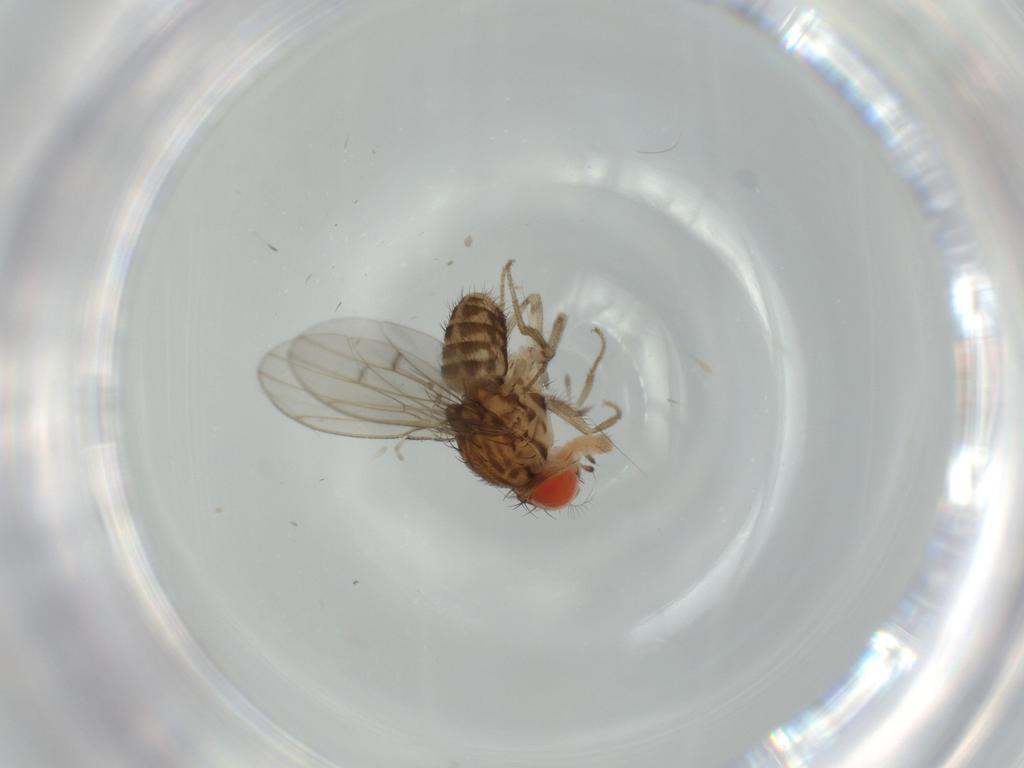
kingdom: Animalia
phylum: Arthropoda
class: Insecta
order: Diptera
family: Drosophilidae
